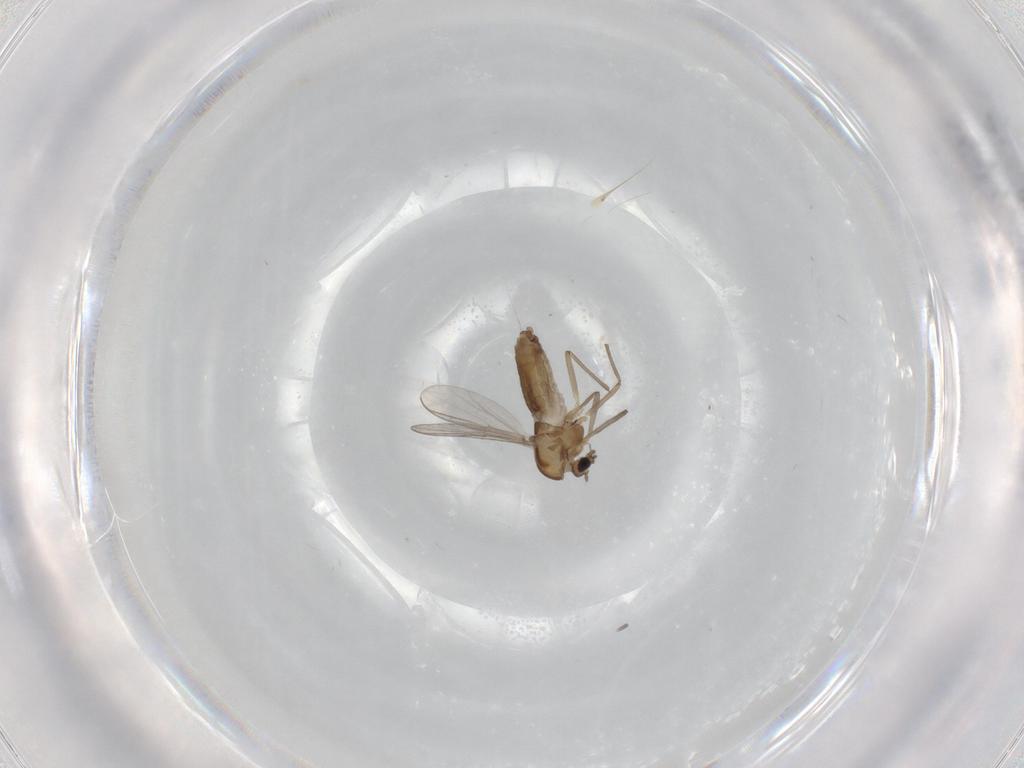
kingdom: Animalia
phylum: Arthropoda
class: Insecta
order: Diptera
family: Chironomidae
